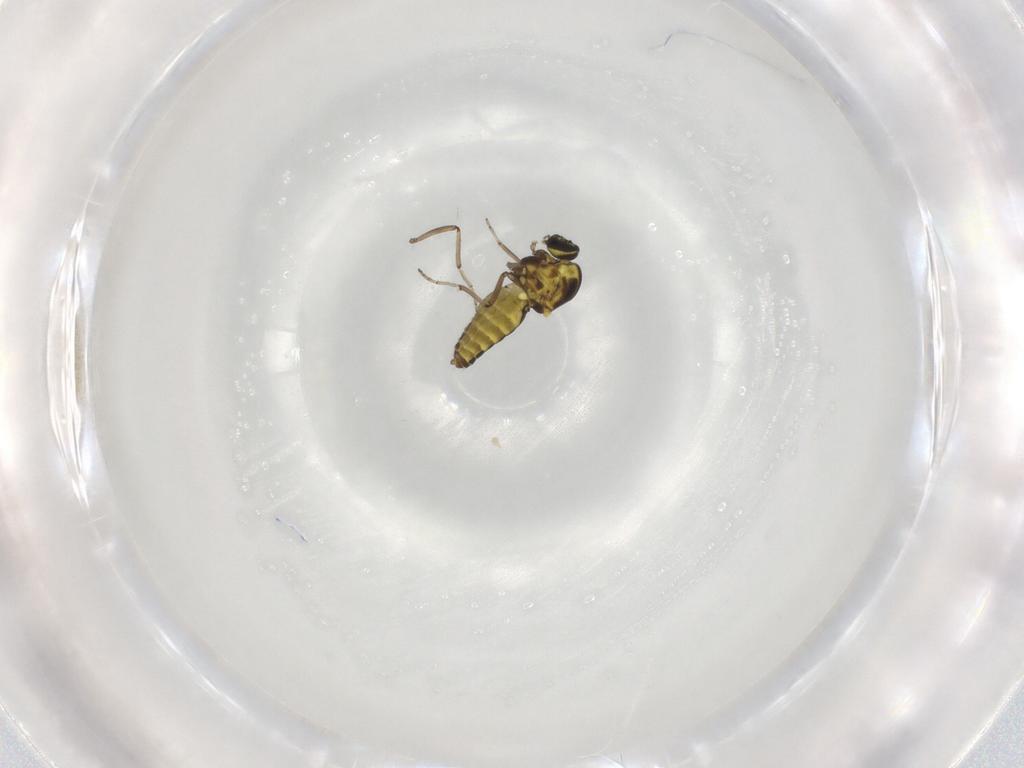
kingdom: Animalia
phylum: Arthropoda
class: Insecta
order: Diptera
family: Ceratopogonidae
